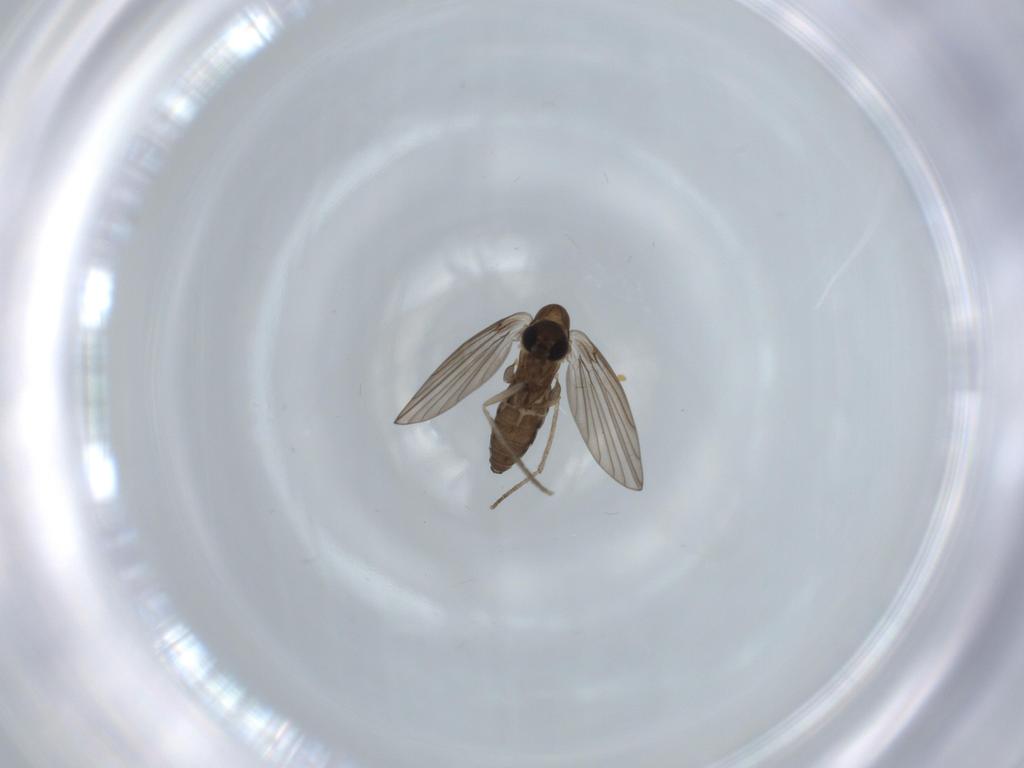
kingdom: Animalia
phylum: Arthropoda
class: Insecta
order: Diptera
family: Psychodidae
